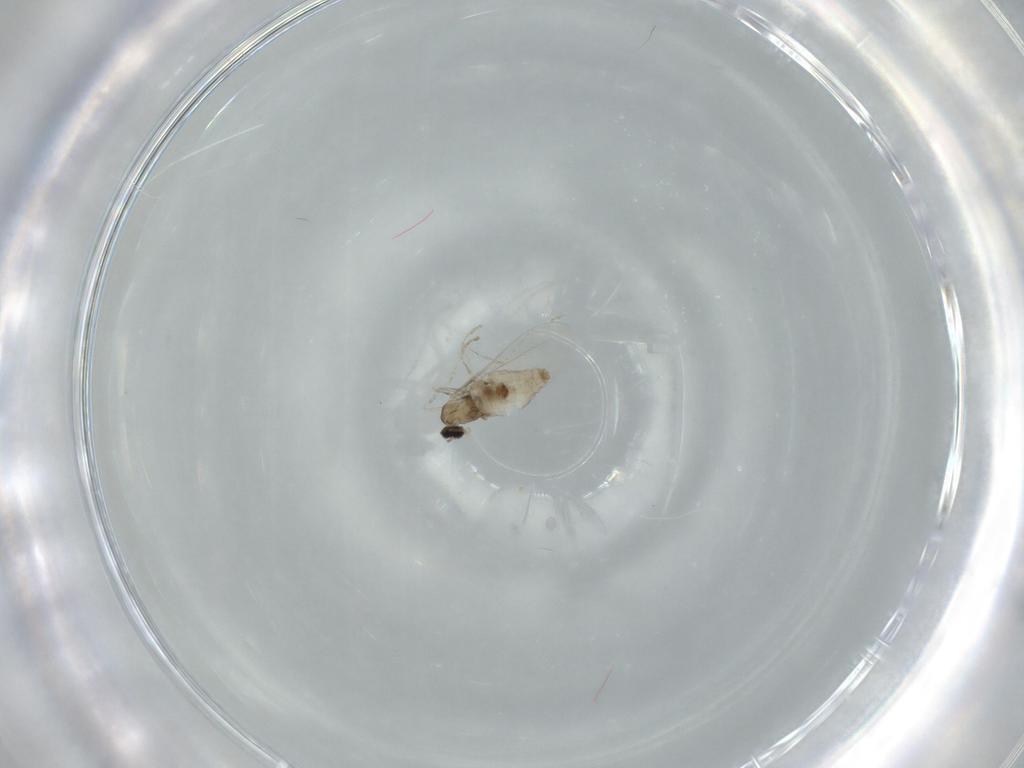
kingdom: Animalia
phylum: Arthropoda
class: Insecta
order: Diptera
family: Cecidomyiidae
